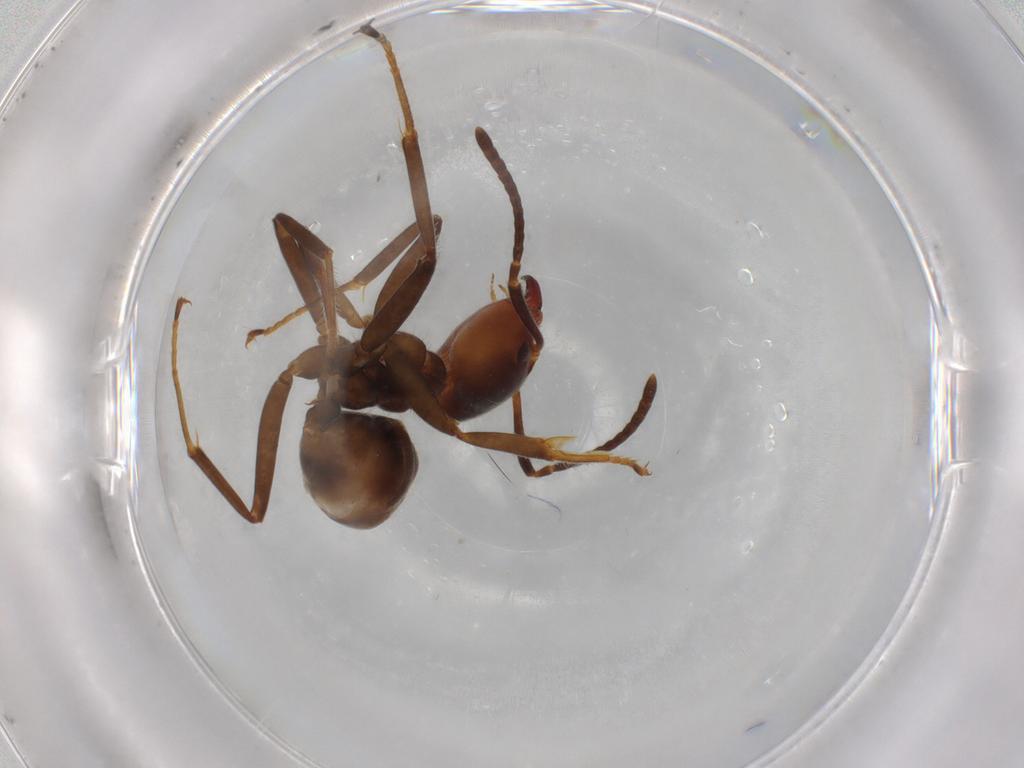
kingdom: Animalia
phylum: Arthropoda
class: Insecta
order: Hymenoptera
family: Formicidae
